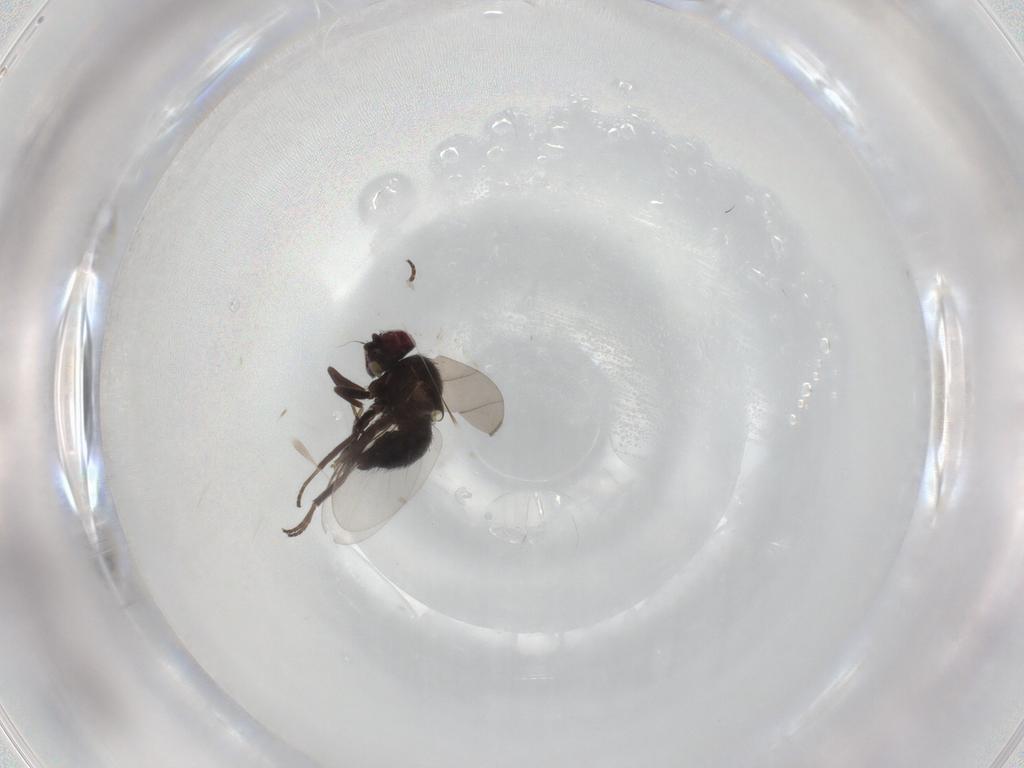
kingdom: Animalia
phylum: Arthropoda
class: Insecta
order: Diptera
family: Sciaridae
